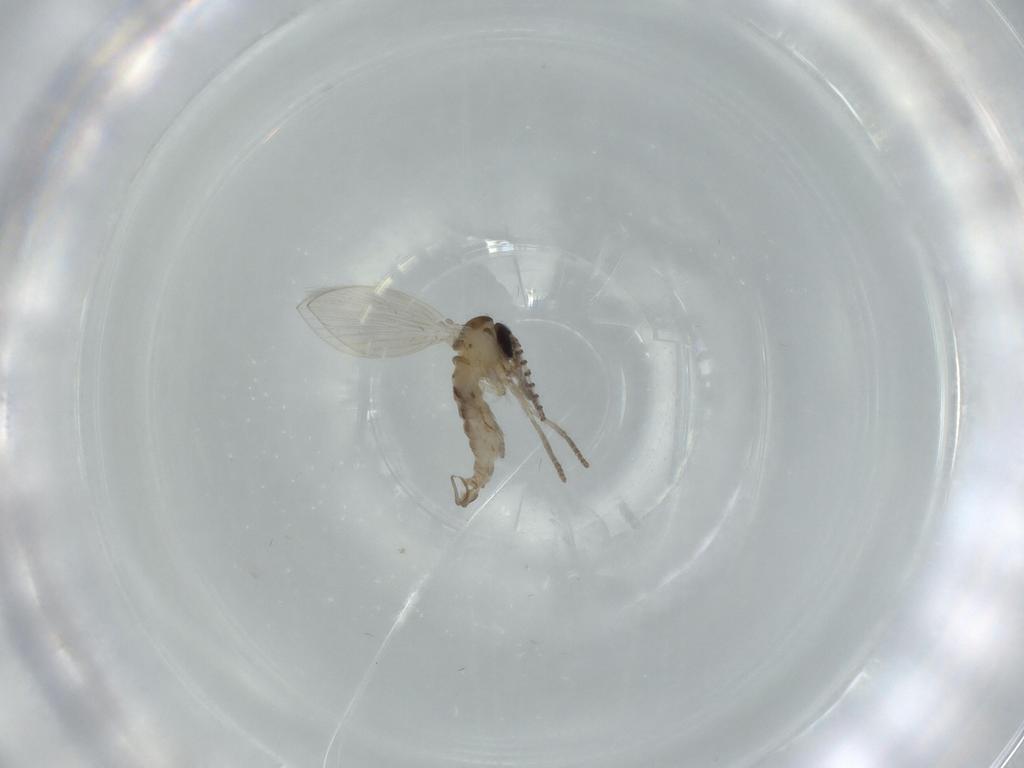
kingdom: Animalia
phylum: Arthropoda
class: Insecta
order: Diptera
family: Psychodidae
